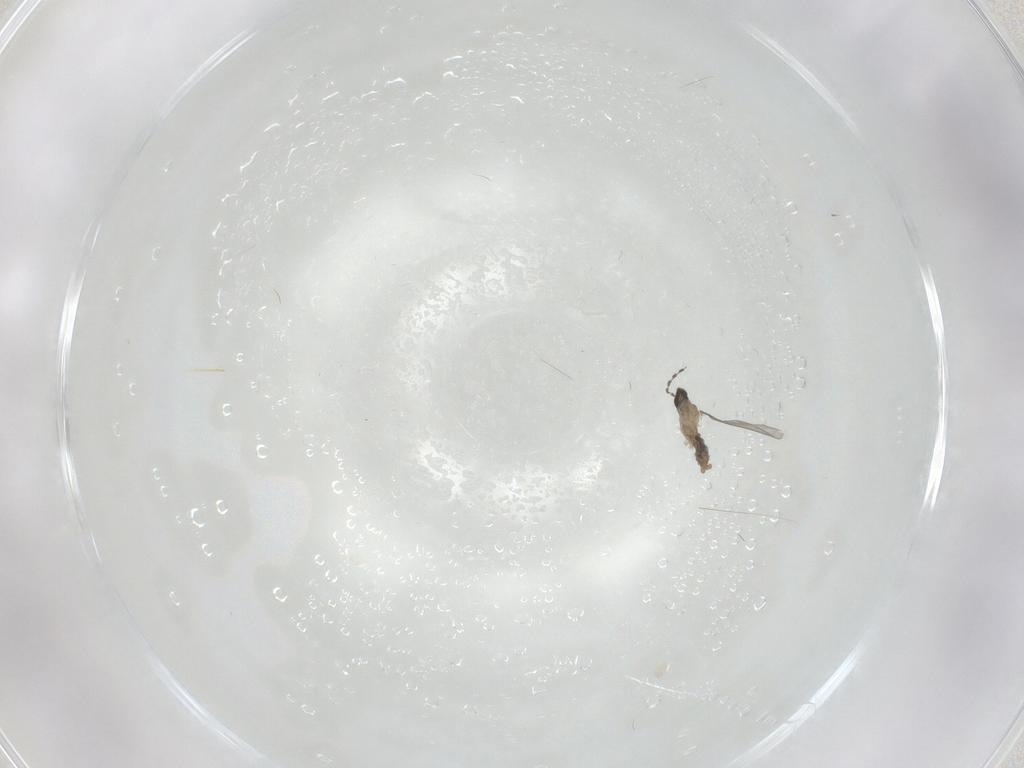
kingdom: Animalia
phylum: Arthropoda
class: Insecta
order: Diptera
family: Cecidomyiidae
